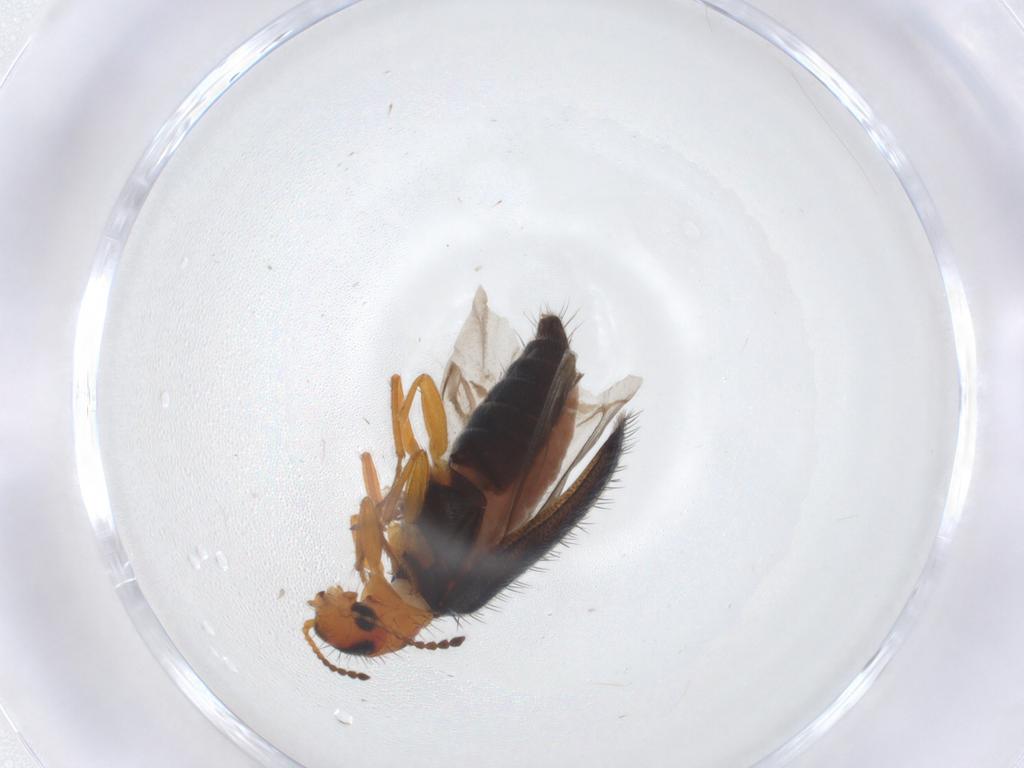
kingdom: Animalia
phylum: Arthropoda
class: Insecta
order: Coleoptera
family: Melyridae
